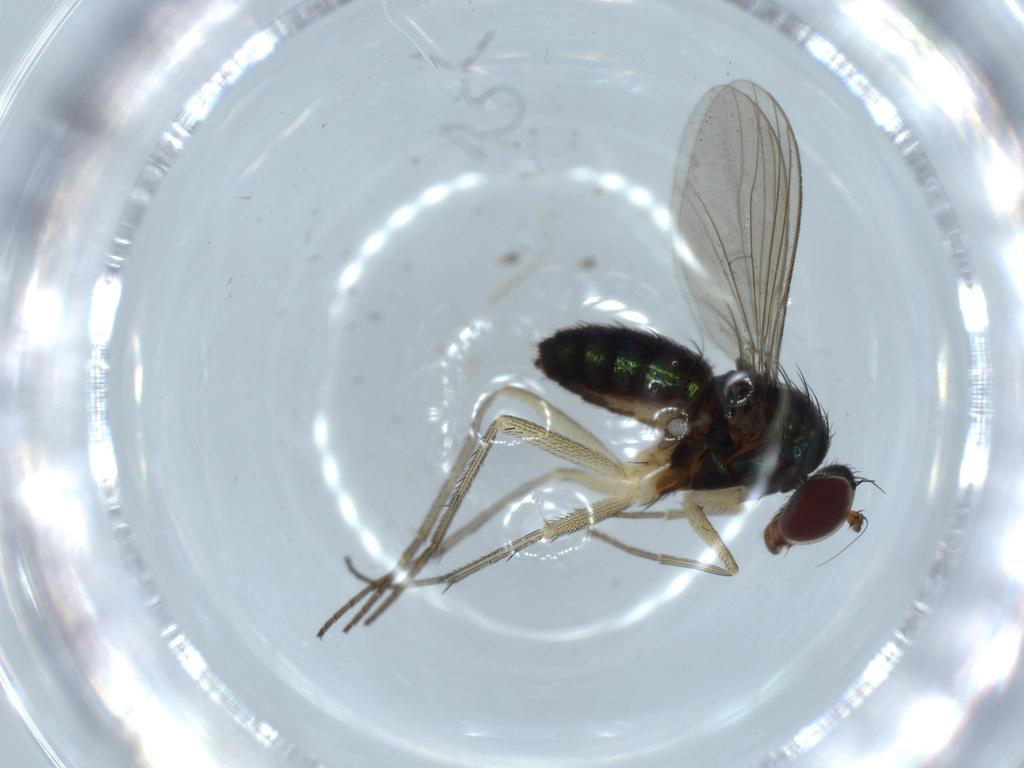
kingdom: Animalia
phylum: Arthropoda
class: Insecta
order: Diptera
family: Dolichopodidae
